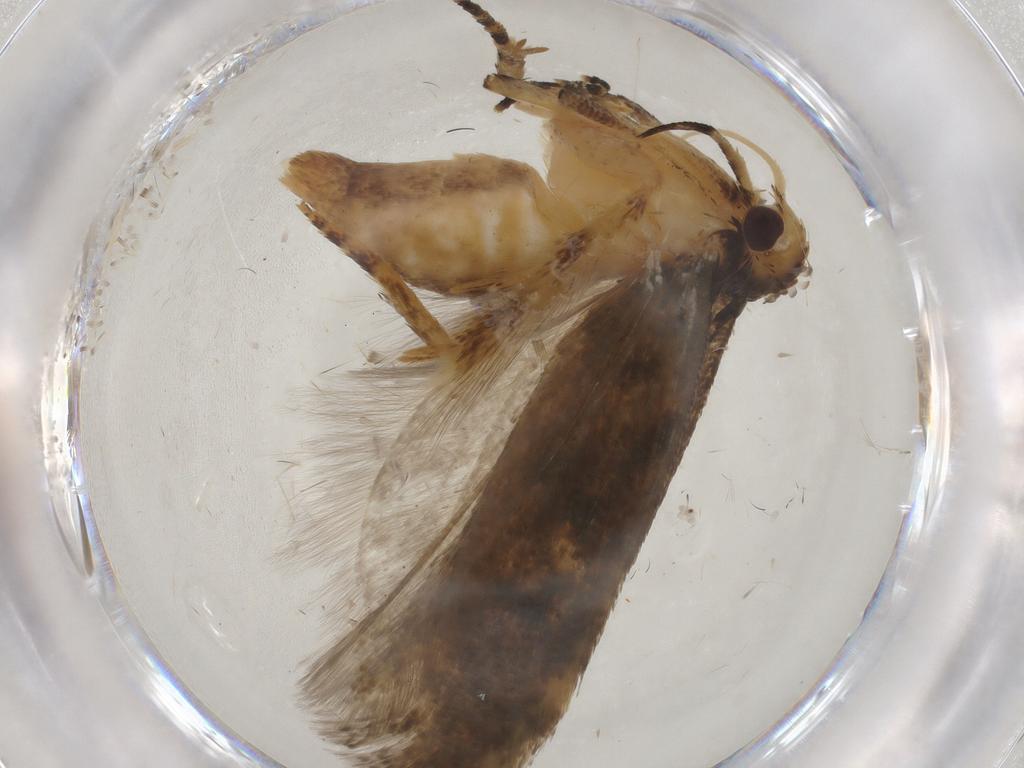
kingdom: Animalia
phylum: Arthropoda
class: Insecta
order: Lepidoptera
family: Gelechiidae
